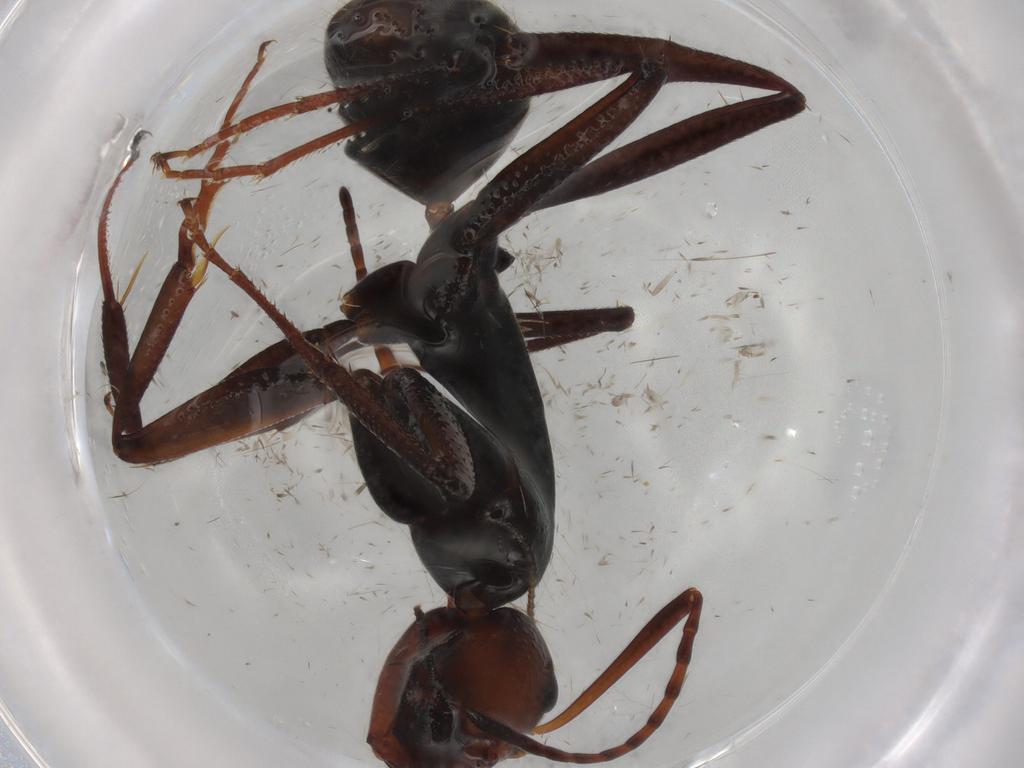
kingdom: Animalia
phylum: Arthropoda
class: Insecta
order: Hymenoptera
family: Formicidae
